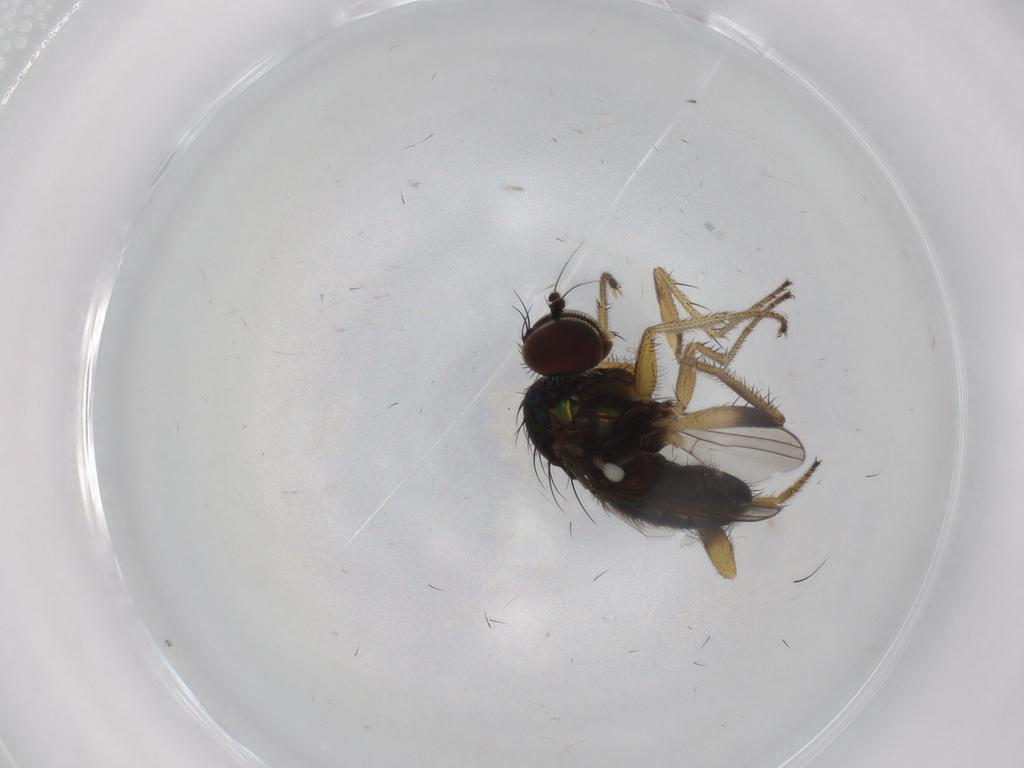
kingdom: Animalia
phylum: Arthropoda
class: Insecta
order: Diptera
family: Dolichopodidae
